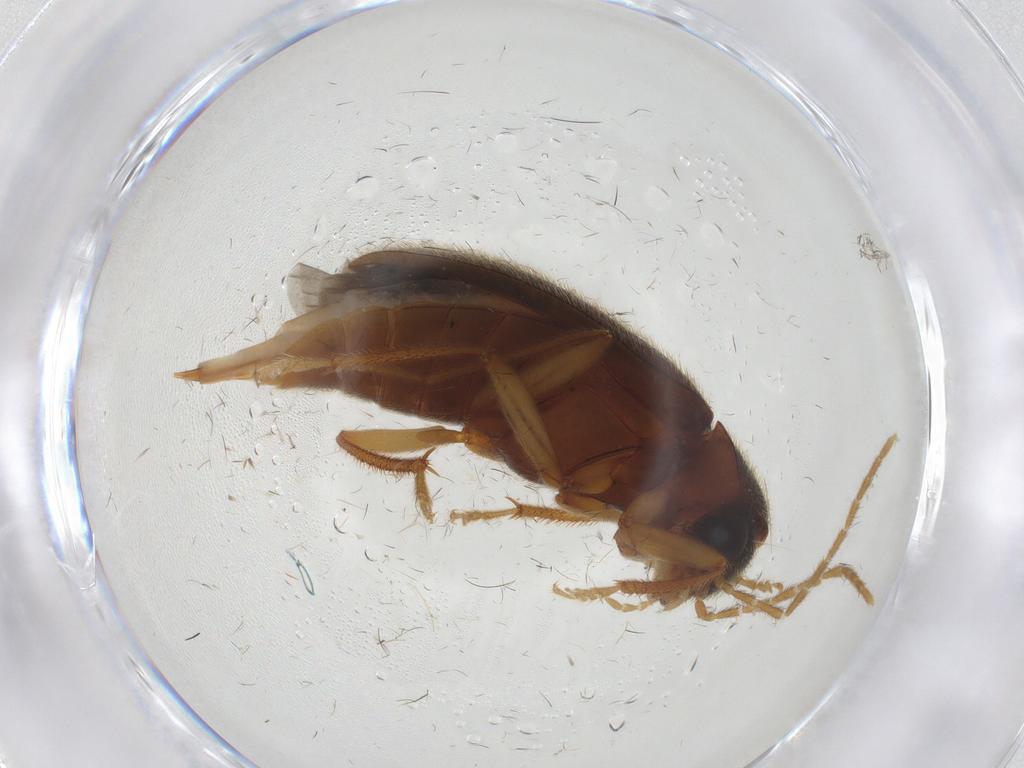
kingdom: Animalia
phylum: Arthropoda
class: Insecta
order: Coleoptera
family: Ptilodactylidae
